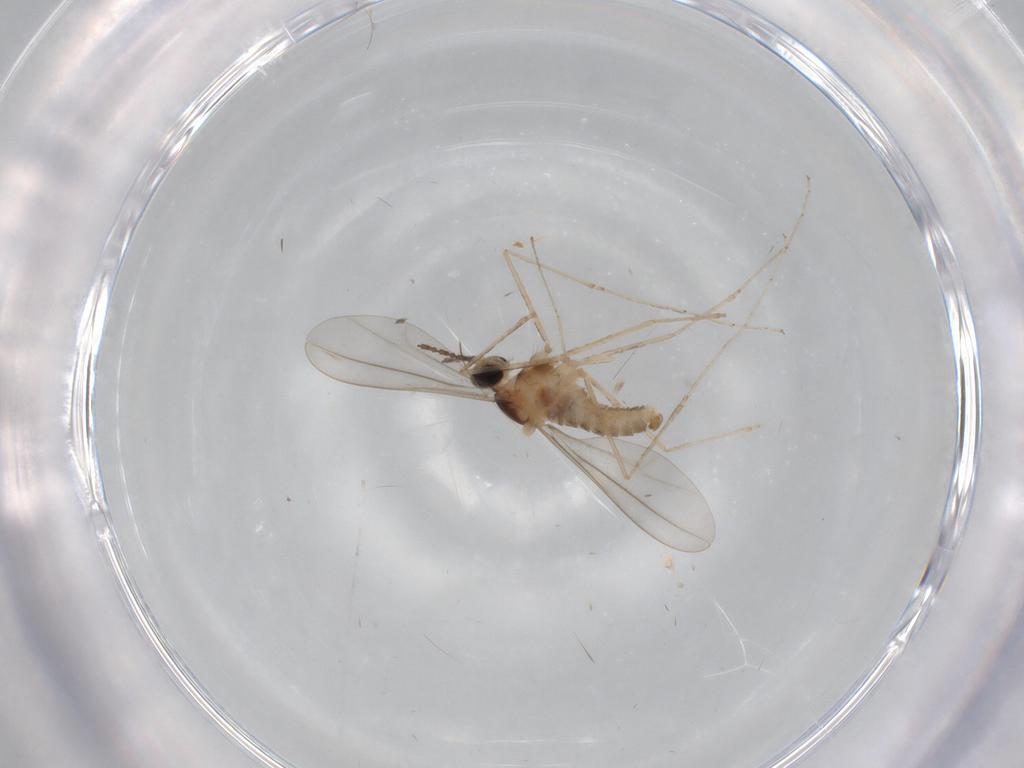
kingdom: Animalia
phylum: Arthropoda
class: Insecta
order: Diptera
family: Cecidomyiidae
